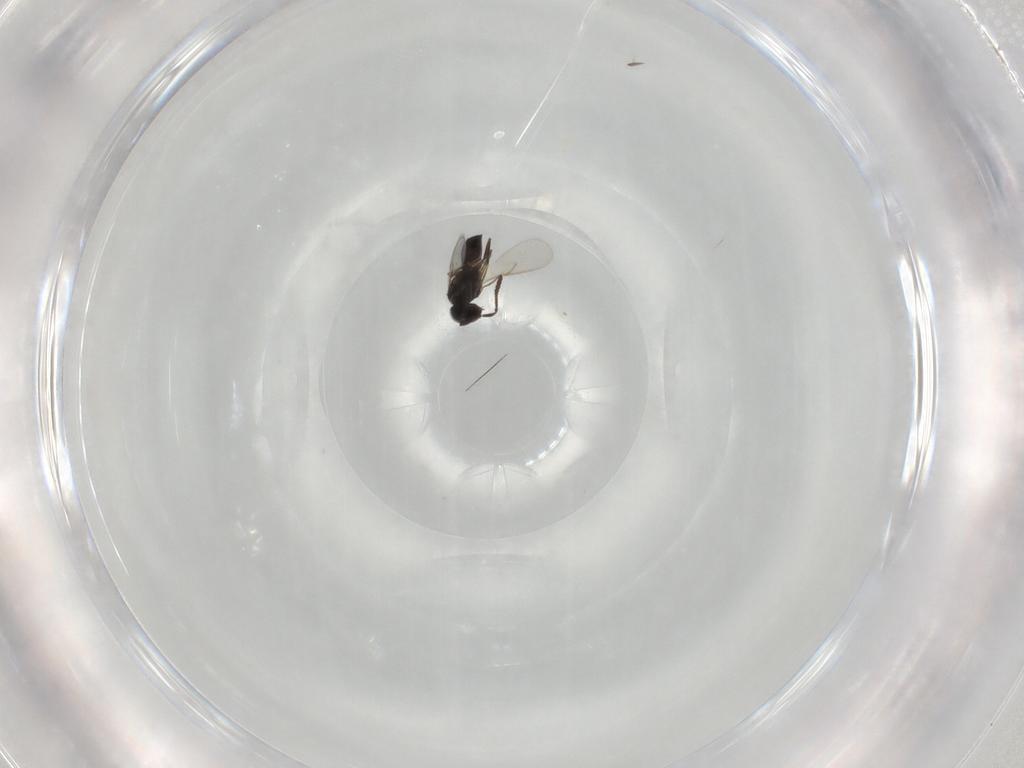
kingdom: Animalia
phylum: Arthropoda
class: Insecta
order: Hymenoptera
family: Scelionidae
